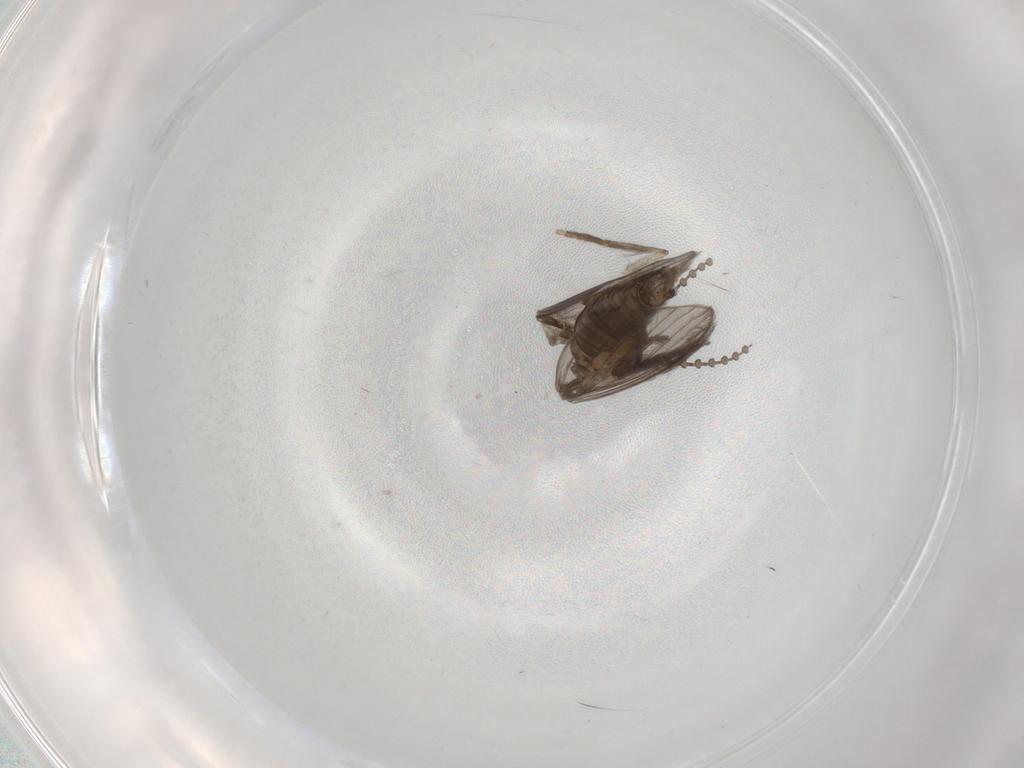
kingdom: Animalia
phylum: Arthropoda
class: Insecta
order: Diptera
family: Psychodidae
